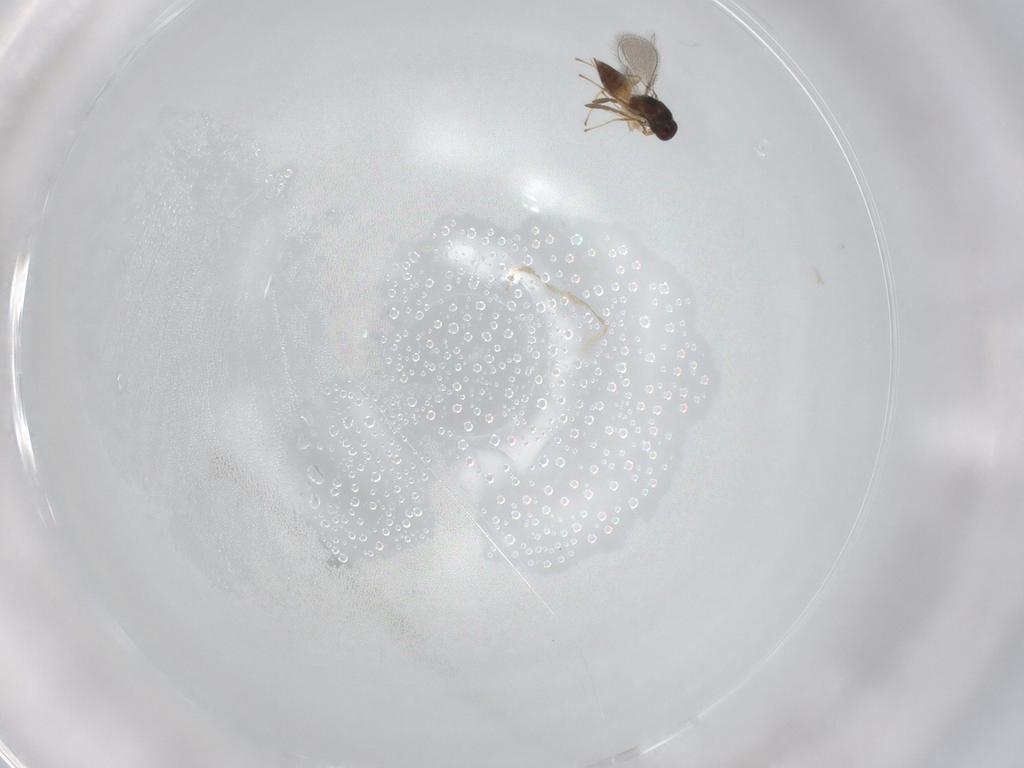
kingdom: Animalia
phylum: Arthropoda
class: Insecta
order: Hymenoptera
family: Mymaridae
